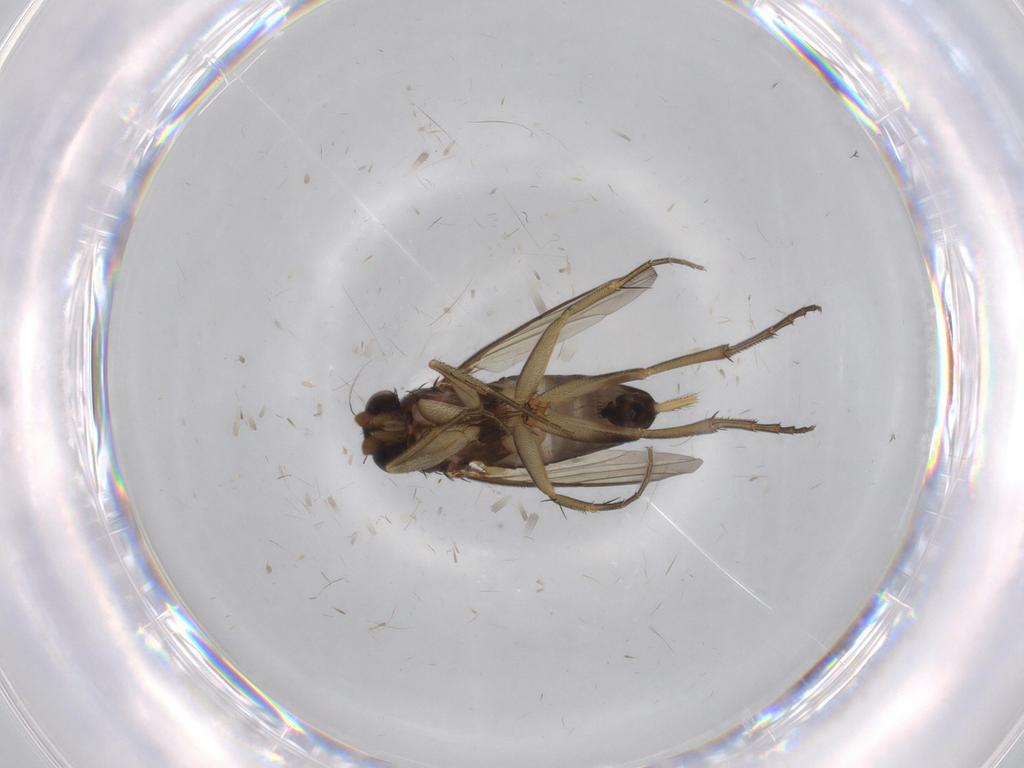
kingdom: Animalia
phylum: Arthropoda
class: Insecta
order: Diptera
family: Phoridae
